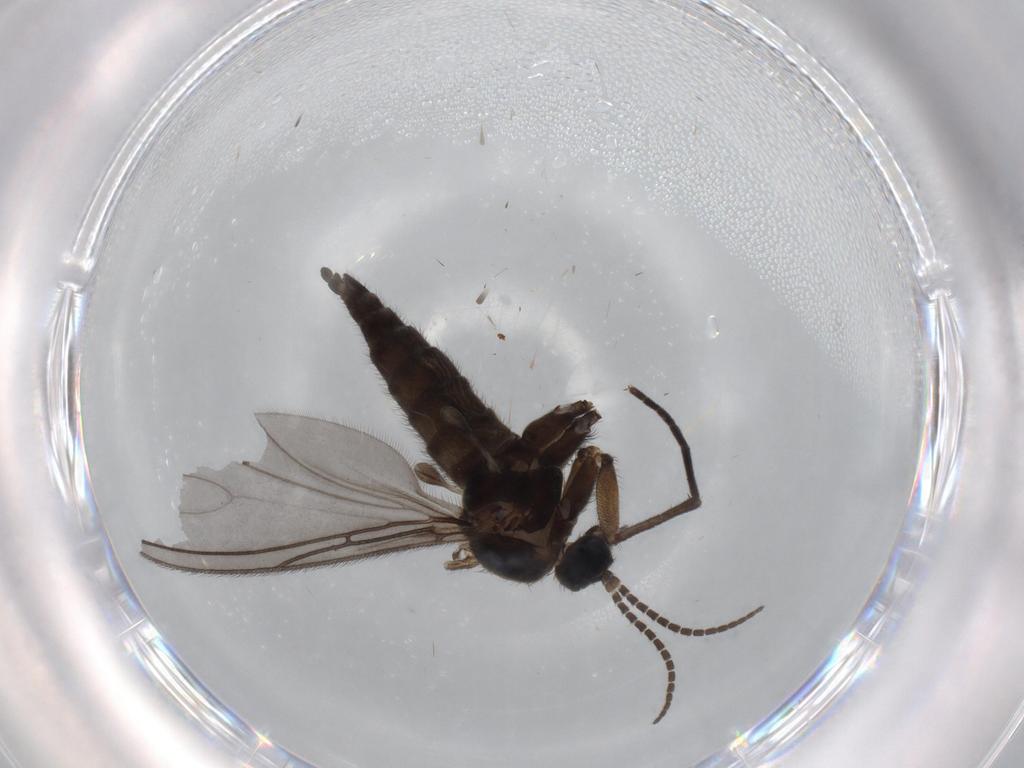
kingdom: Animalia
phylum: Arthropoda
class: Insecta
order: Diptera
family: Sciaridae
